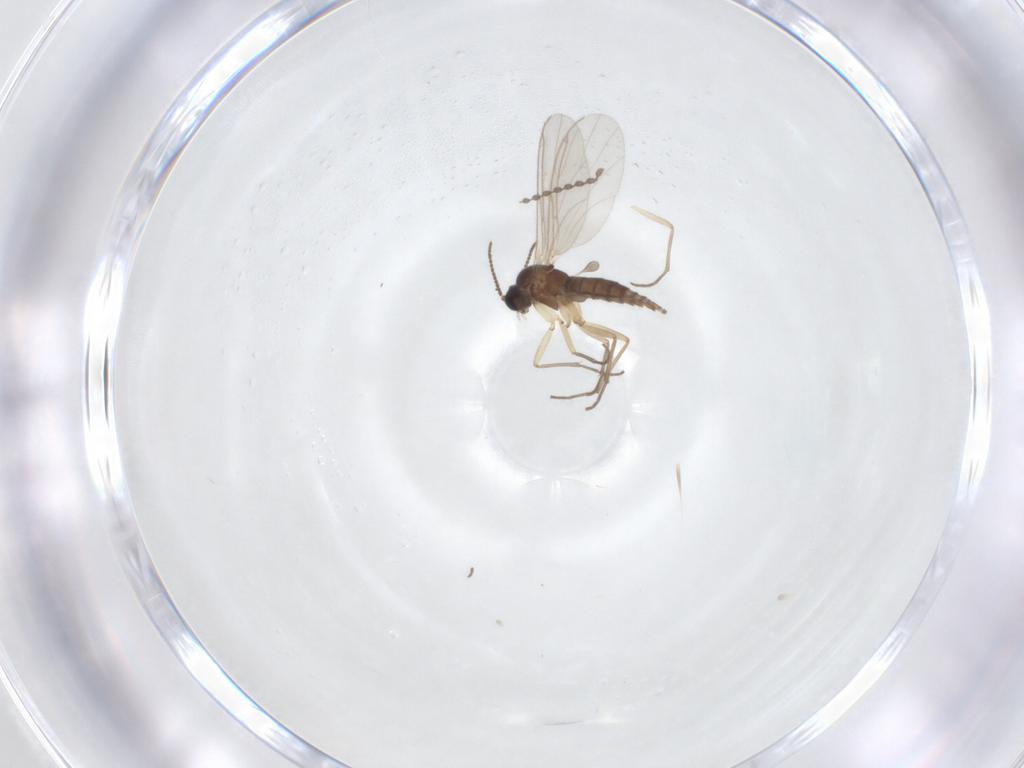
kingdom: Animalia
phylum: Arthropoda
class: Insecta
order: Diptera
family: Sciaridae
